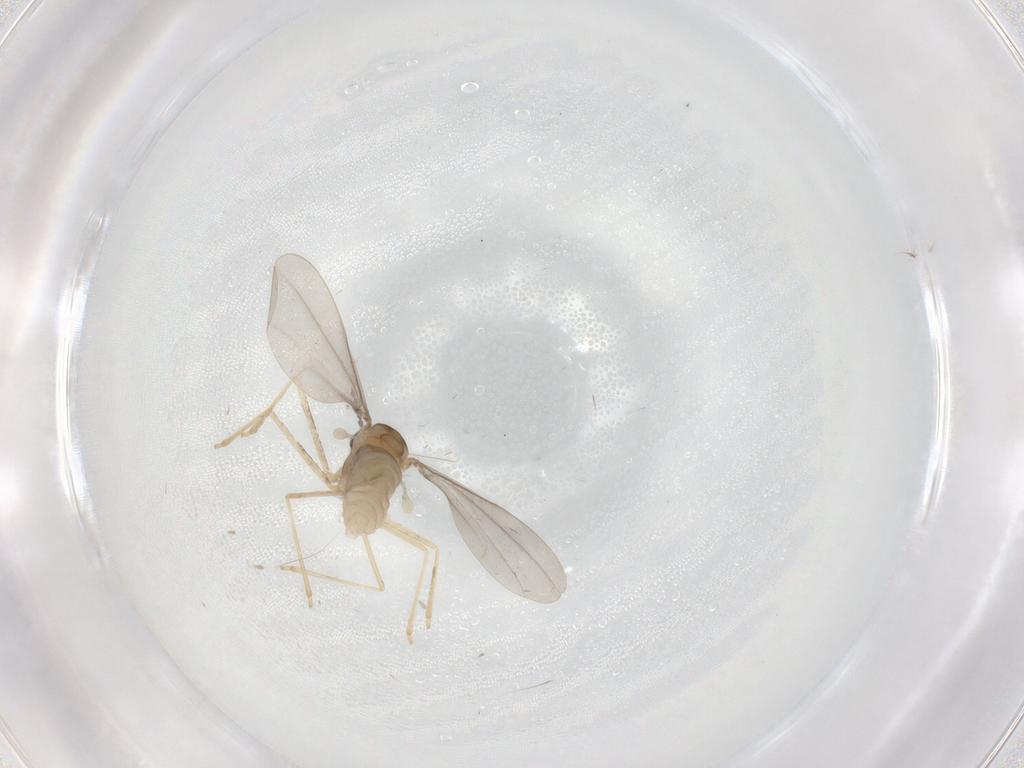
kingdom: Animalia
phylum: Arthropoda
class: Insecta
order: Diptera
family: Cecidomyiidae
